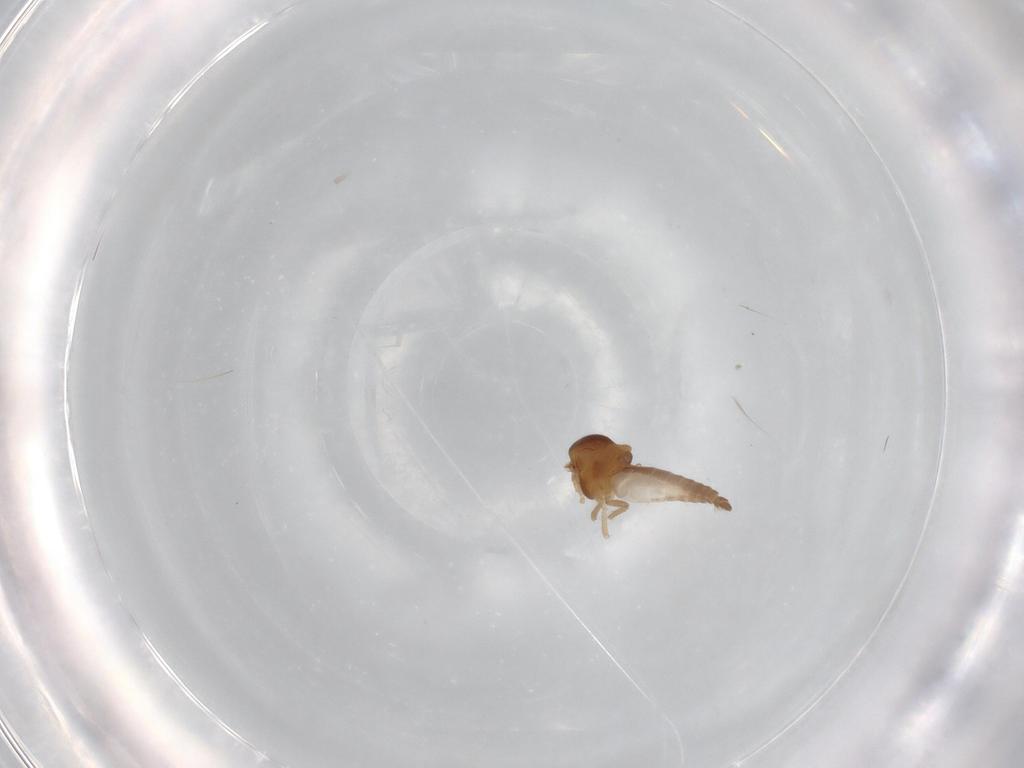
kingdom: Animalia
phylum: Arthropoda
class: Insecta
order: Diptera
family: Ceratopogonidae
